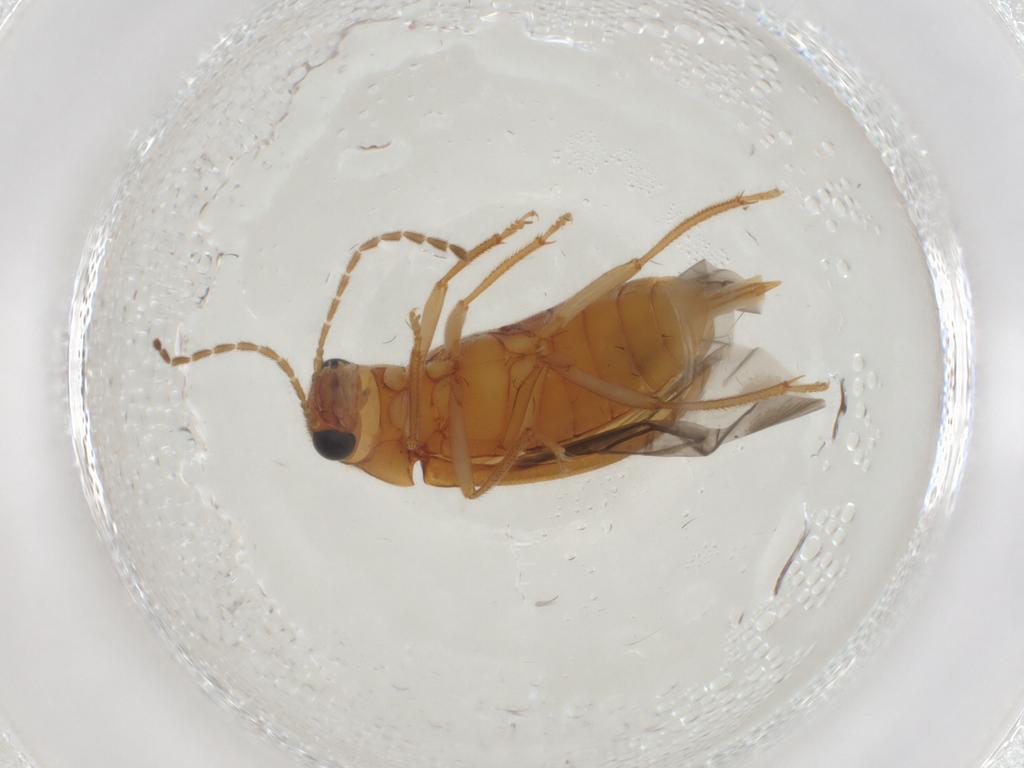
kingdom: Animalia
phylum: Arthropoda
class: Insecta
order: Coleoptera
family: Ptilodactylidae
